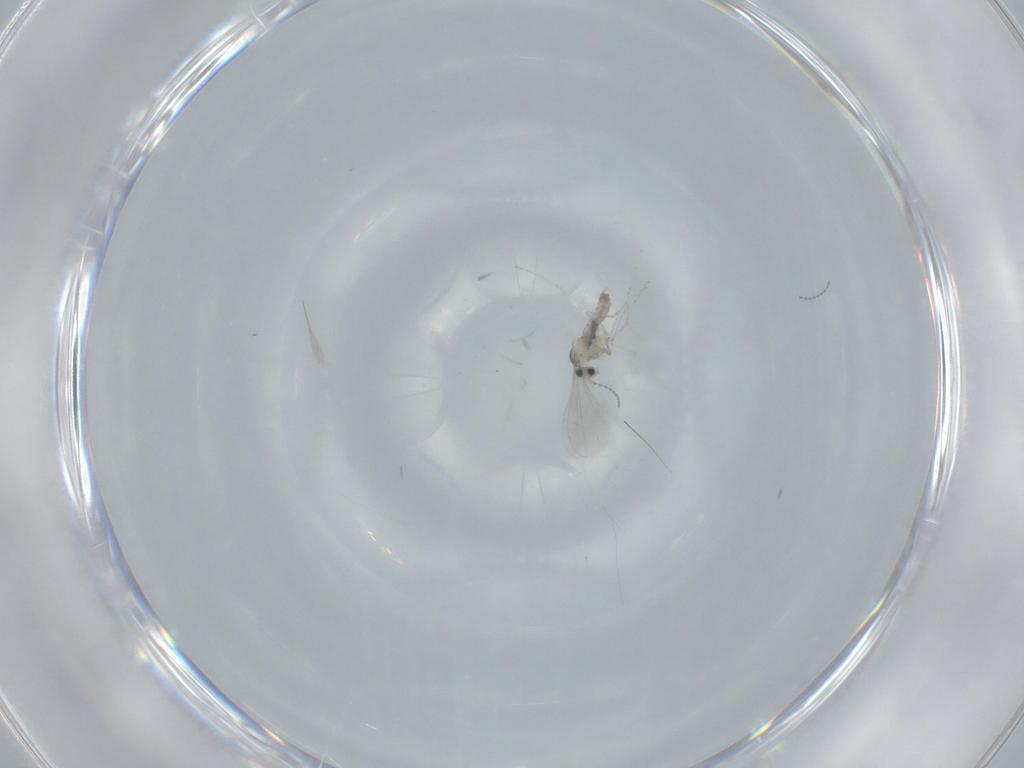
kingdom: Animalia
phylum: Arthropoda
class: Insecta
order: Diptera
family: Cecidomyiidae
